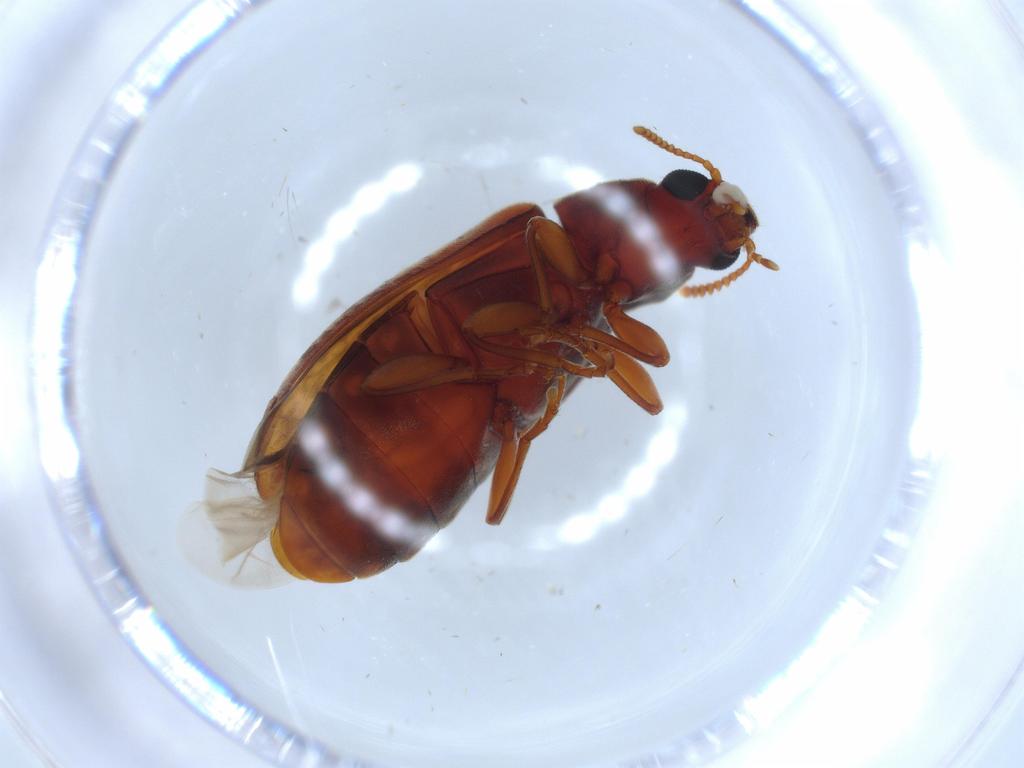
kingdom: Animalia
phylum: Arthropoda
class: Insecta
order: Coleoptera
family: Mycteridae
